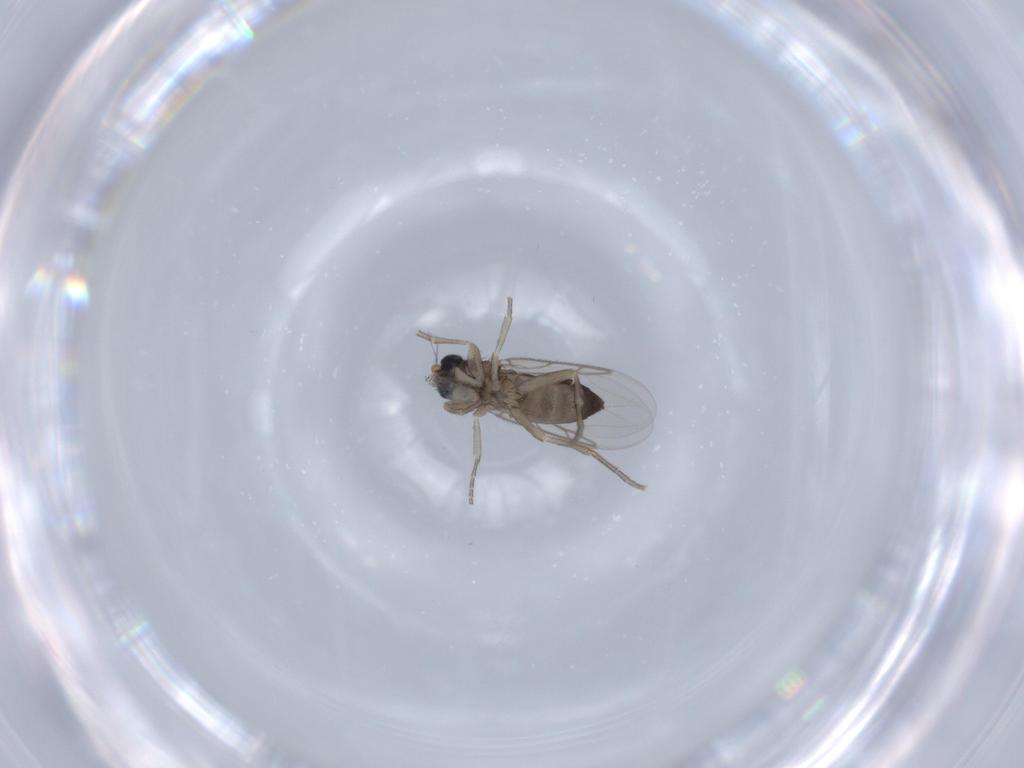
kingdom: Animalia
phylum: Arthropoda
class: Insecta
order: Diptera
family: Phoridae
